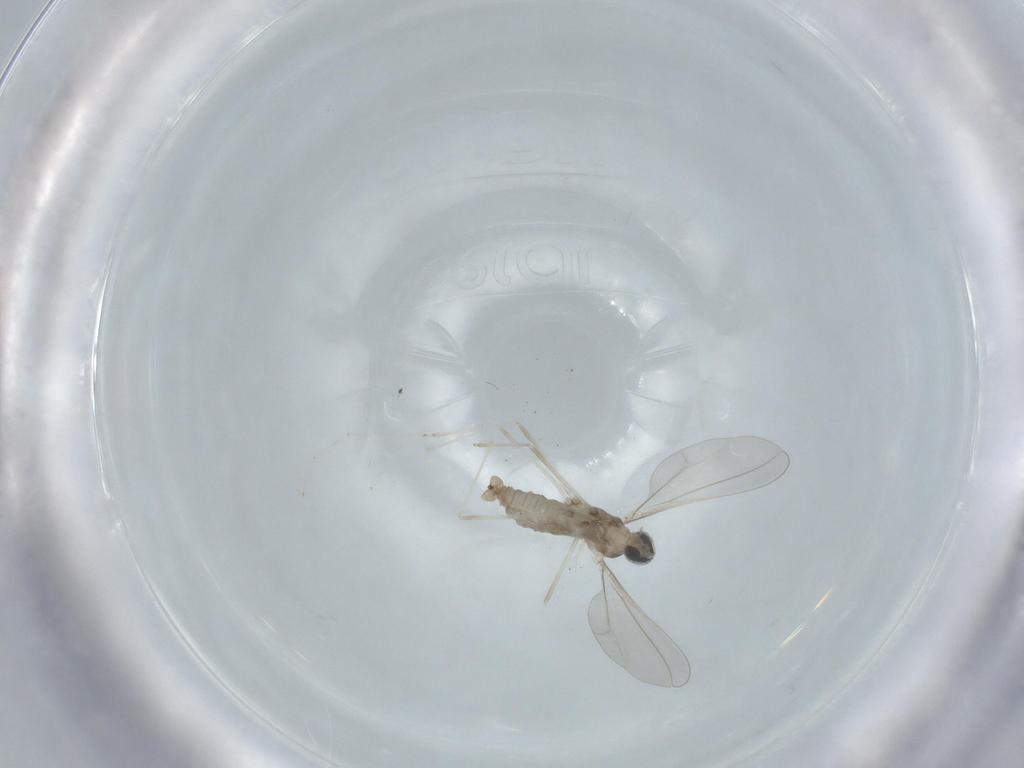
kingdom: Animalia
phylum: Arthropoda
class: Insecta
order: Diptera
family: Cecidomyiidae
